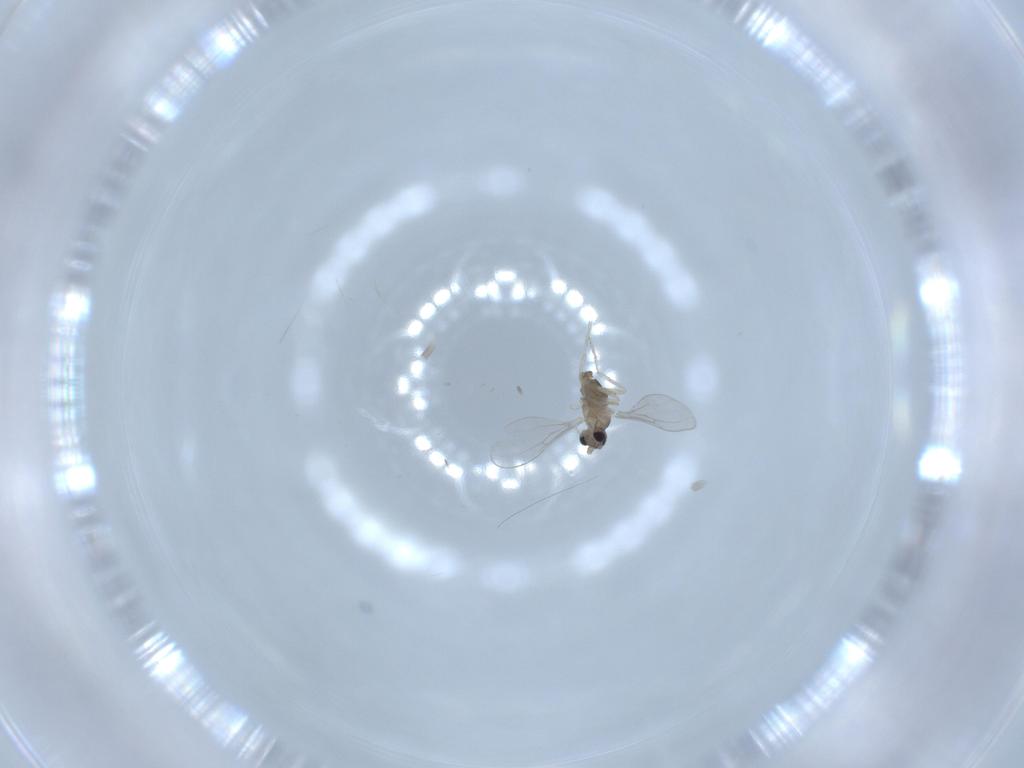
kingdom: Animalia
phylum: Arthropoda
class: Insecta
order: Diptera
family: Cecidomyiidae
